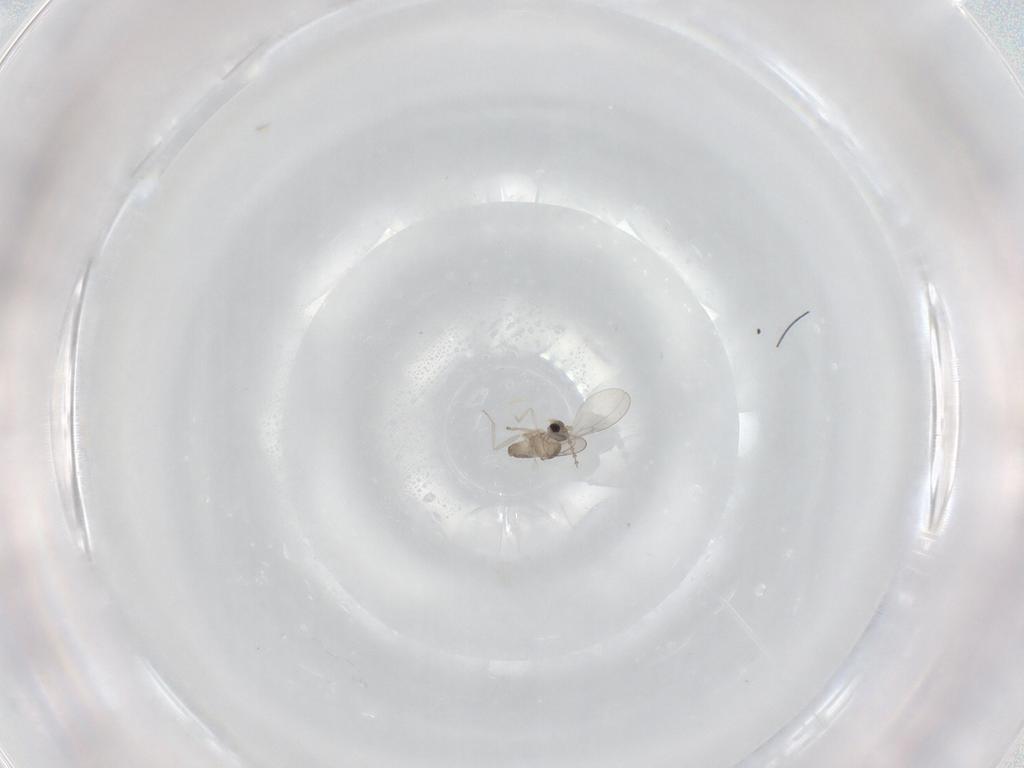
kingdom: Animalia
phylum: Arthropoda
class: Insecta
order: Diptera
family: Cecidomyiidae
